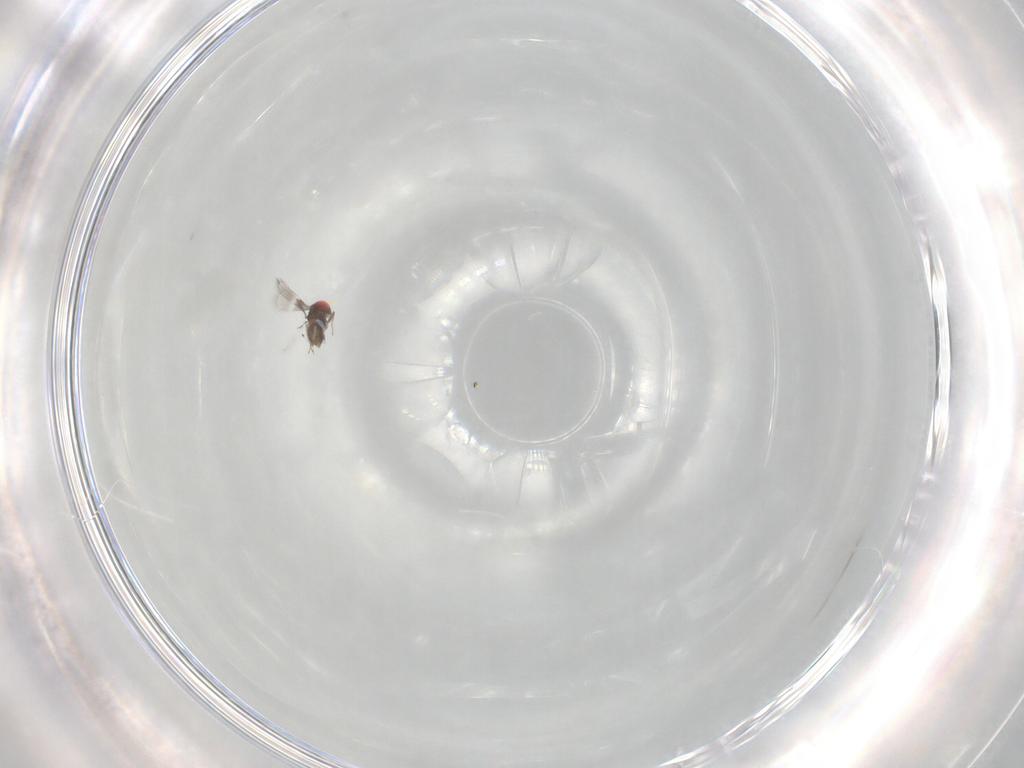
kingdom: Animalia
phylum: Arthropoda
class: Insecta
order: Hymenoptera
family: Trichogrammatidae
